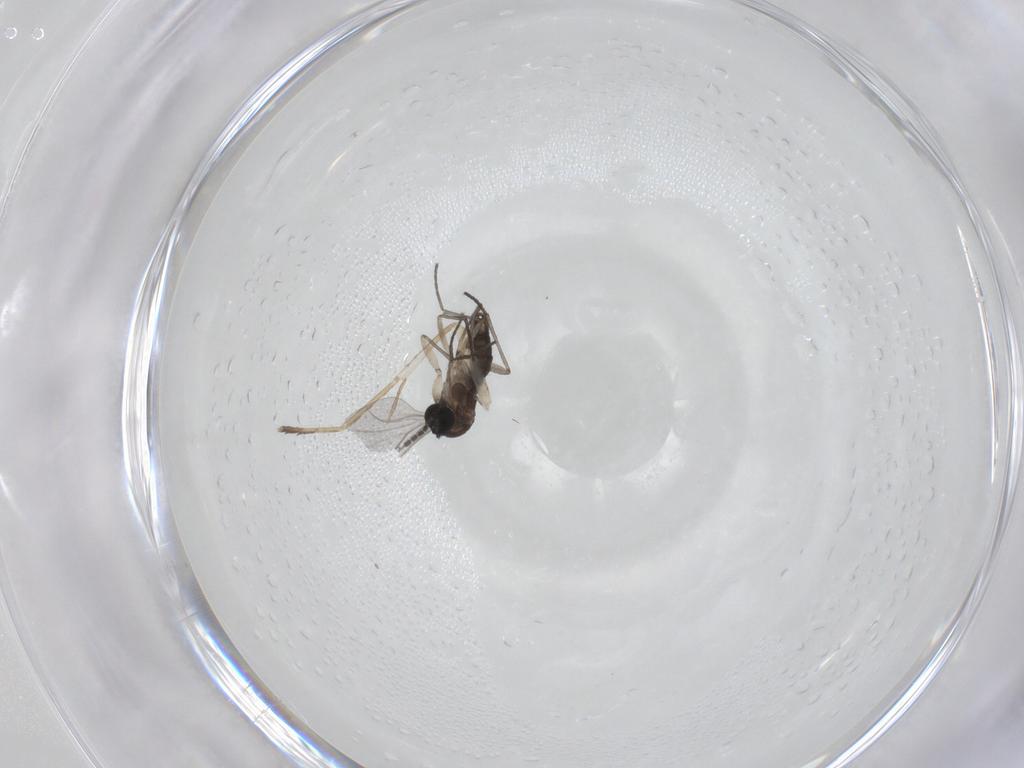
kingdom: Animalia
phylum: Arthropoda
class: Insecta
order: Diptera
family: Sciaridae
